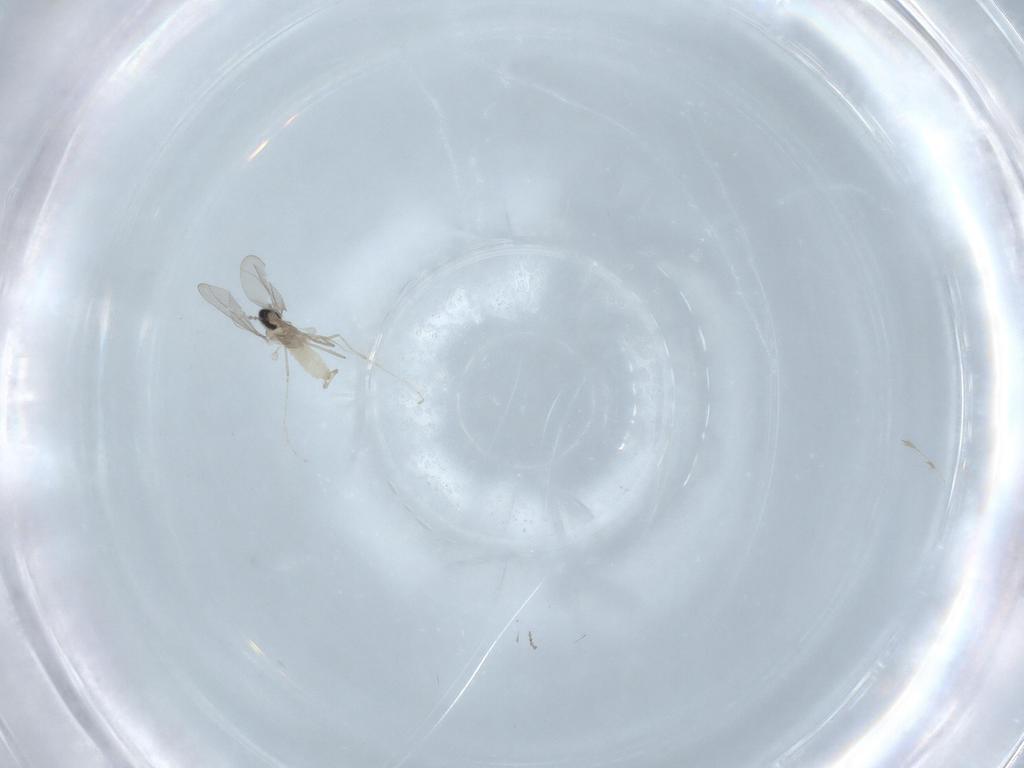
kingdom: Animalia
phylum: Arthropoda
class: Insecta
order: Diptera
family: Cecidomyiidae
